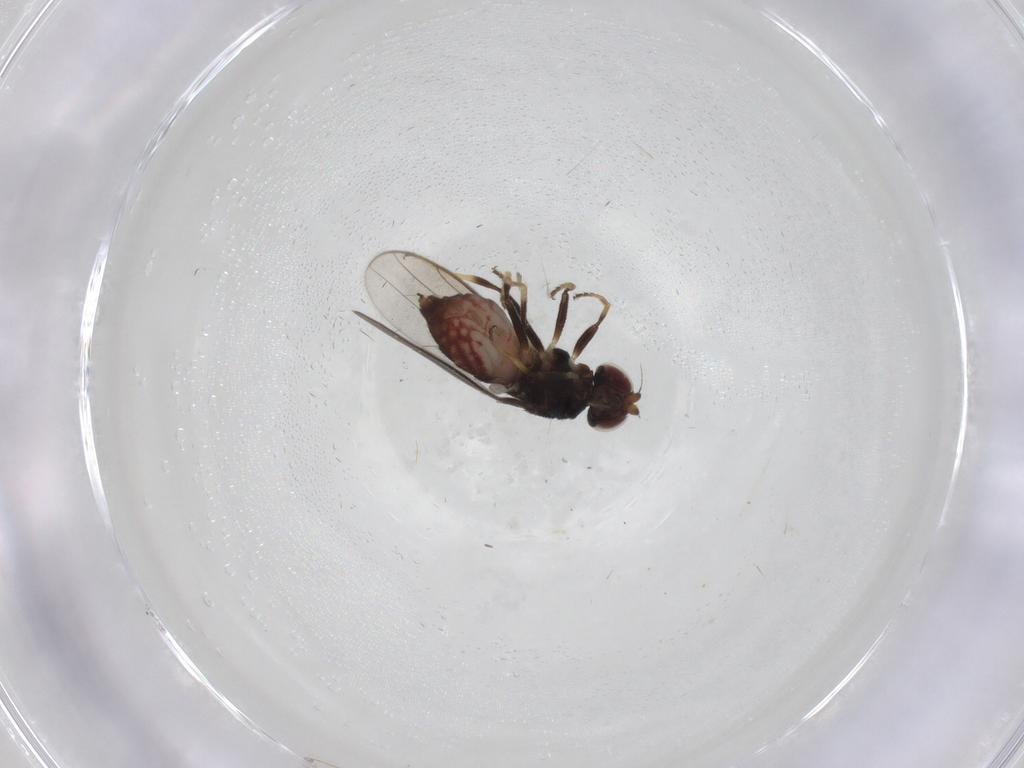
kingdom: Animalia
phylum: Arthropoda
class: Insecta
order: Diptera
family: Chloropidae
